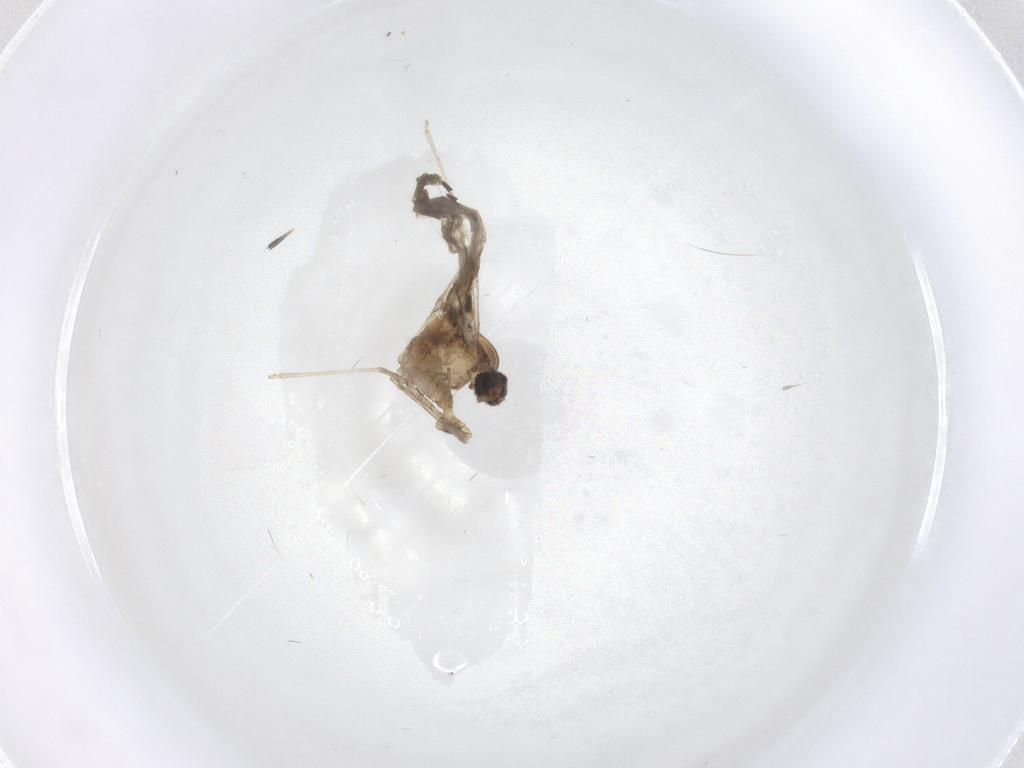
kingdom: Animalia
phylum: Arthropoda
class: Insecta
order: Diptera
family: Cecidomyiidae
